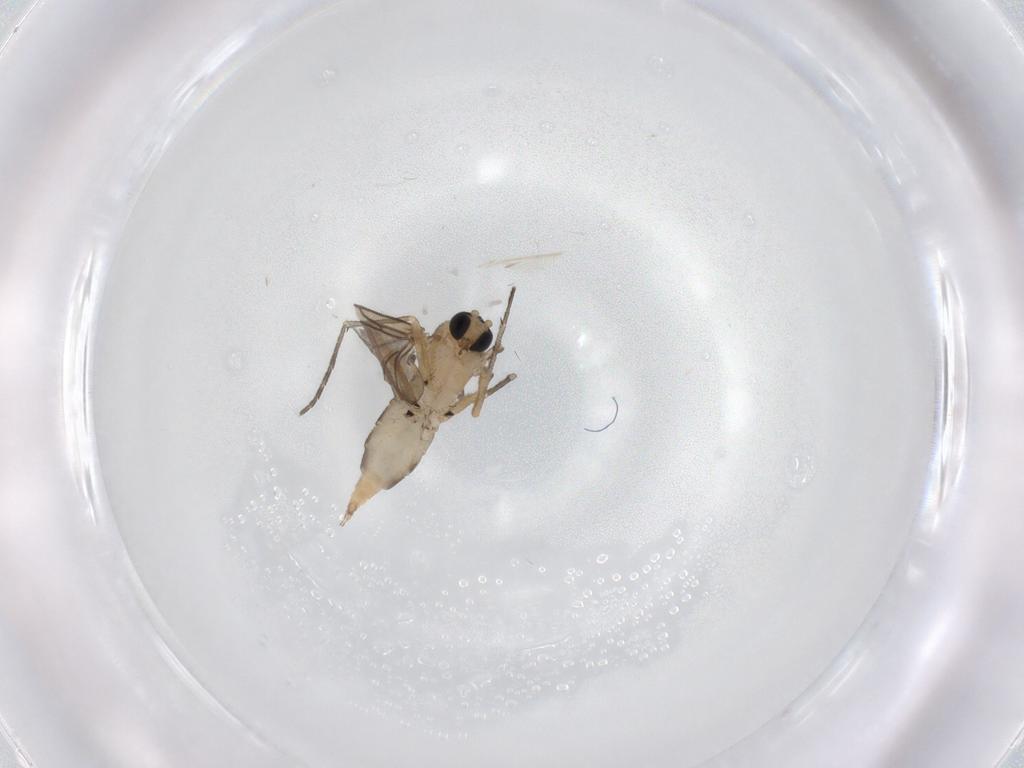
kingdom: Animalia
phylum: Arthropoda
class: Insecta
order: Diptera
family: Sciaridae
